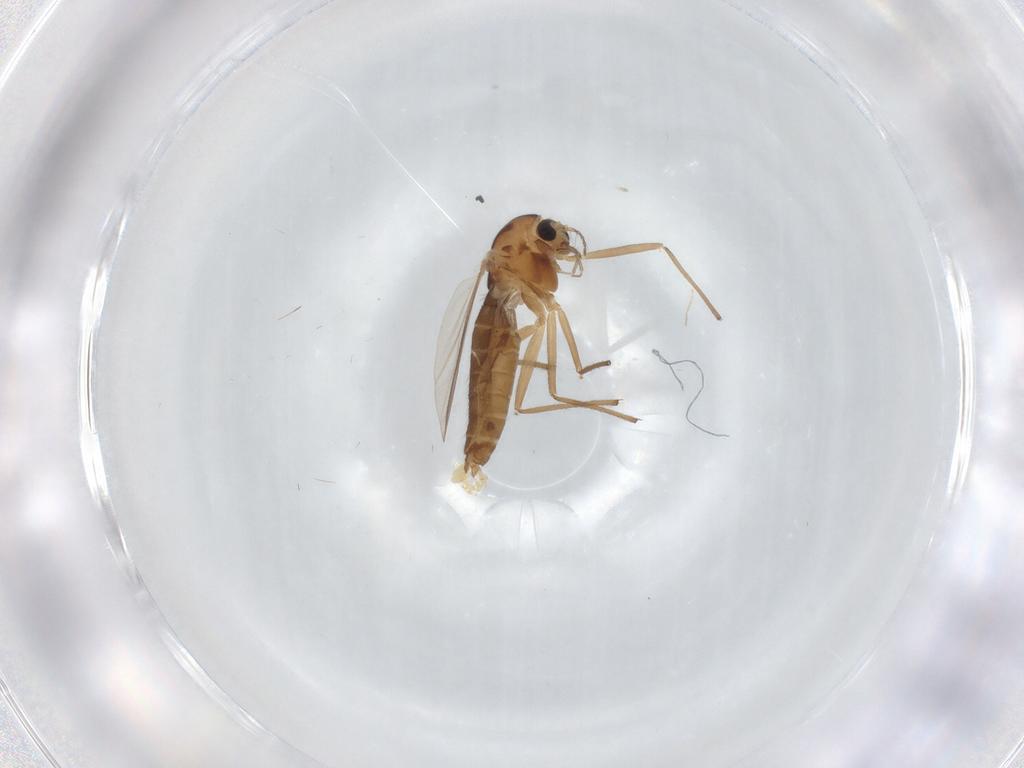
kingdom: Animalia
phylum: Arthropoda
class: Insecta
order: Diptera
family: Chironomidae
